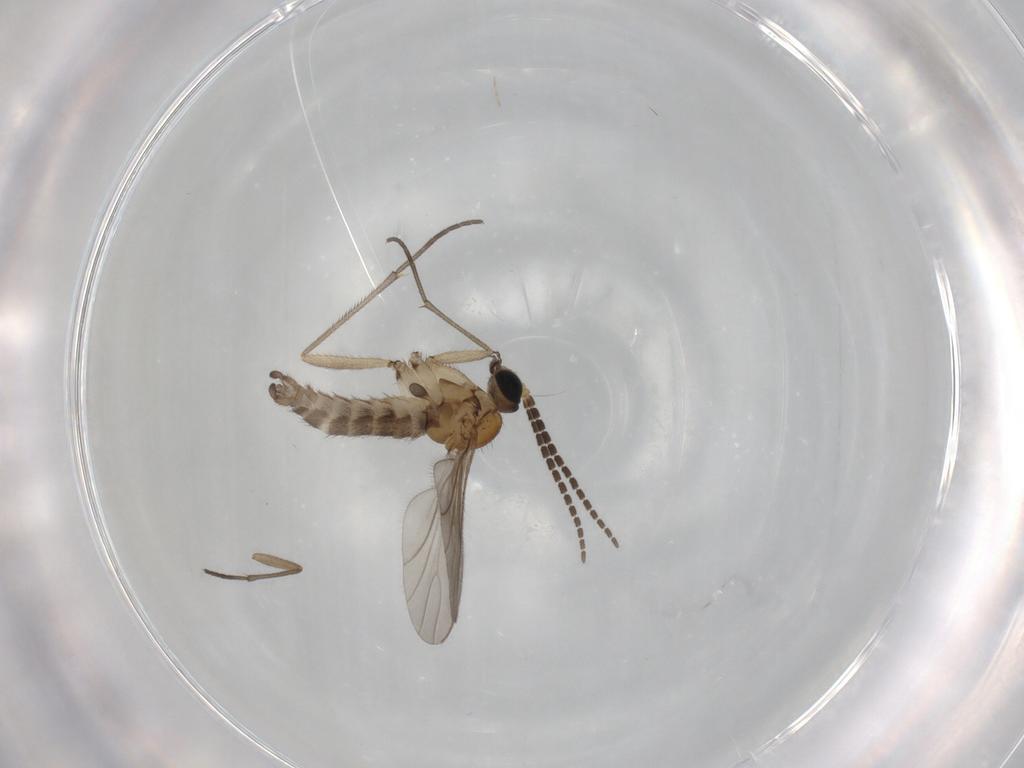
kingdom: Animalia
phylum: Arthropoda
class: Insecta
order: Diptera
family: Sciaridae
